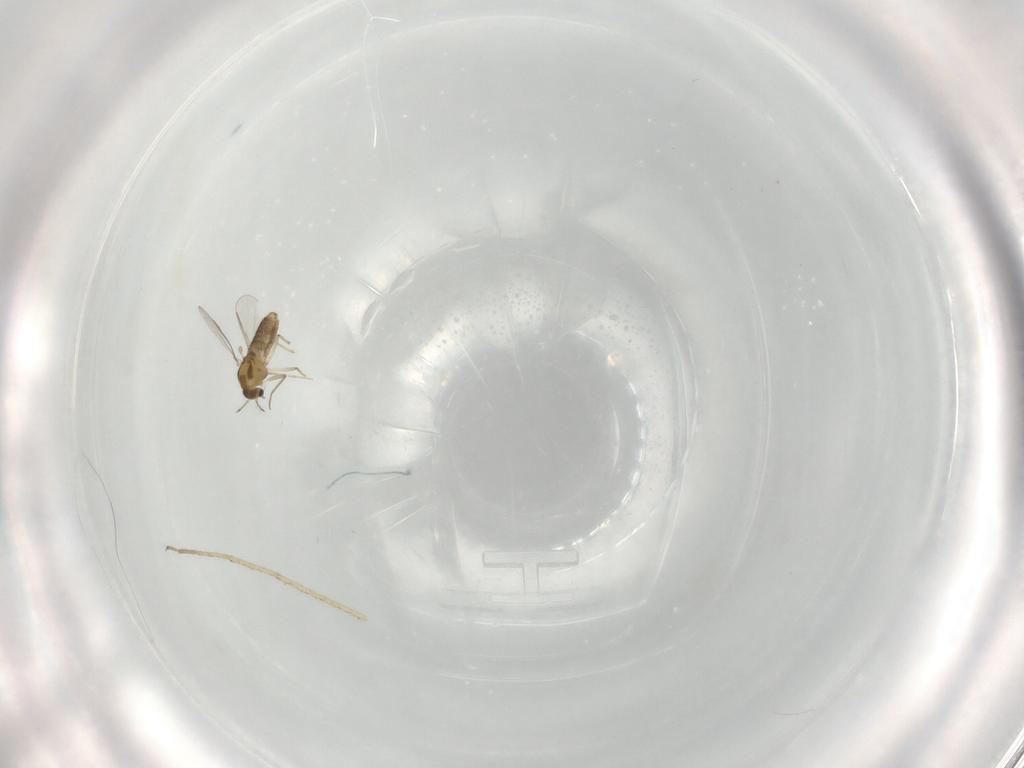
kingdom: Animalia
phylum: Arthropoda
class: Insecta
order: Diptera
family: Chironomidae
